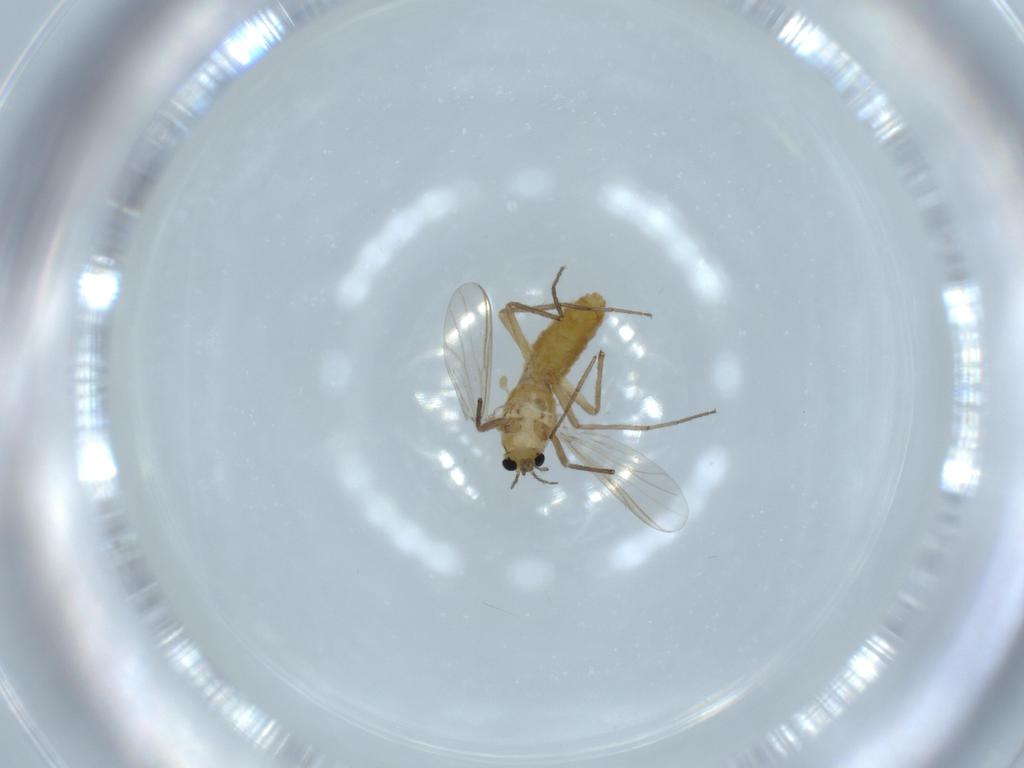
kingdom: Animalia
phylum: Arthropoda
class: Insecta
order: Diptera
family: Chironomidae
